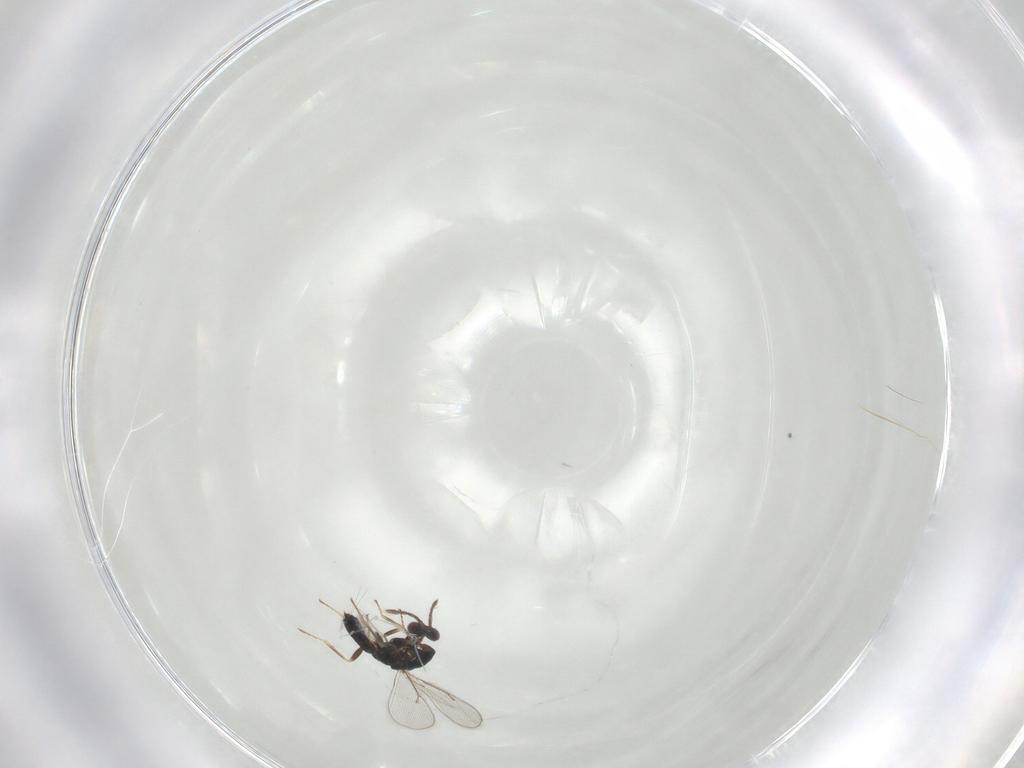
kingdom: Animalia
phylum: Arthropoda
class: Insecta
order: Hymenoptera
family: Eulophidae
